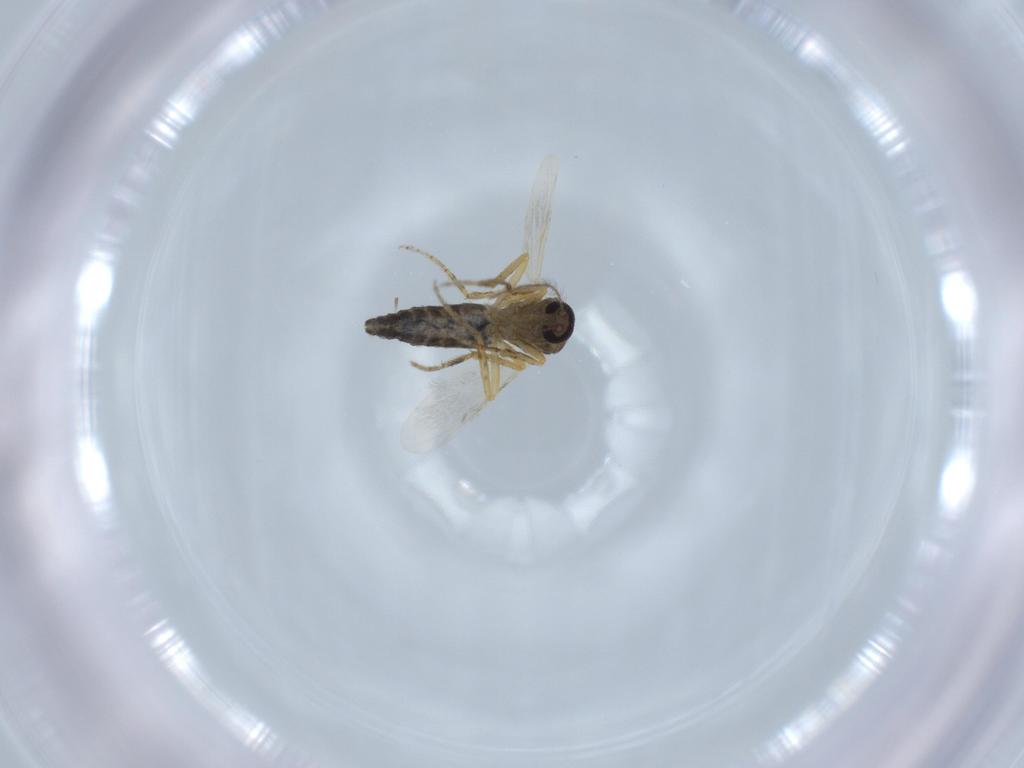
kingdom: Animalia
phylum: Arthropoda
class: Insecta
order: Diptera
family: Ceratopogonidae
